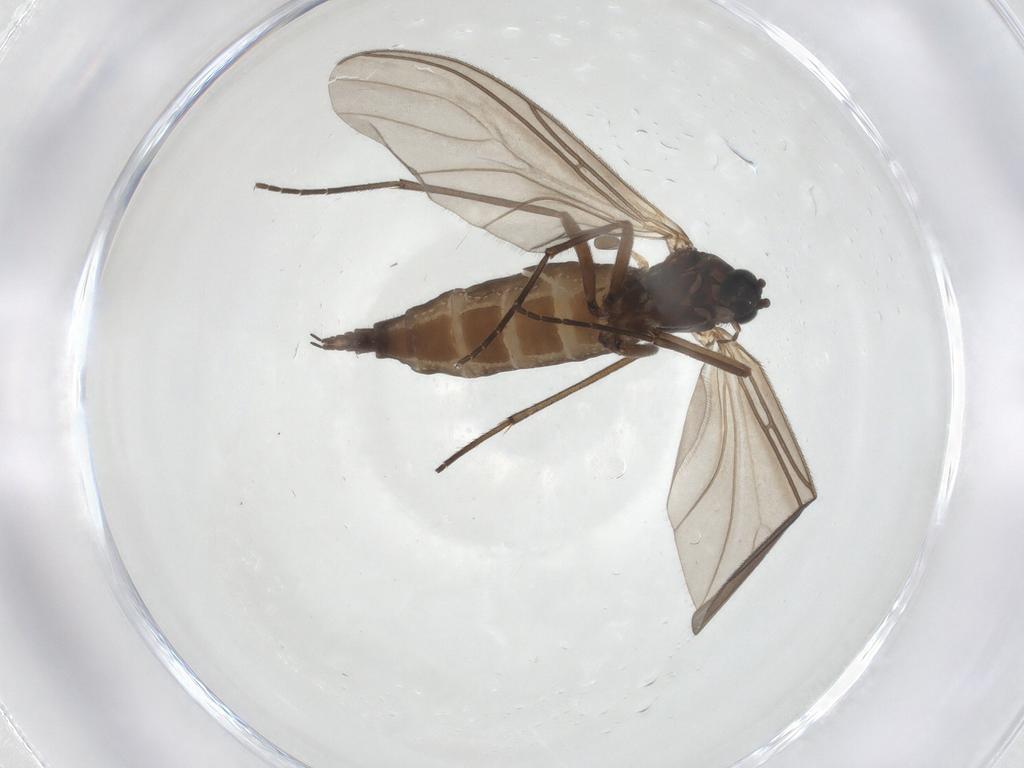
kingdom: Animalia
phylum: Arthropoda
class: Insecta
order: Diptera
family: Sciaridae
